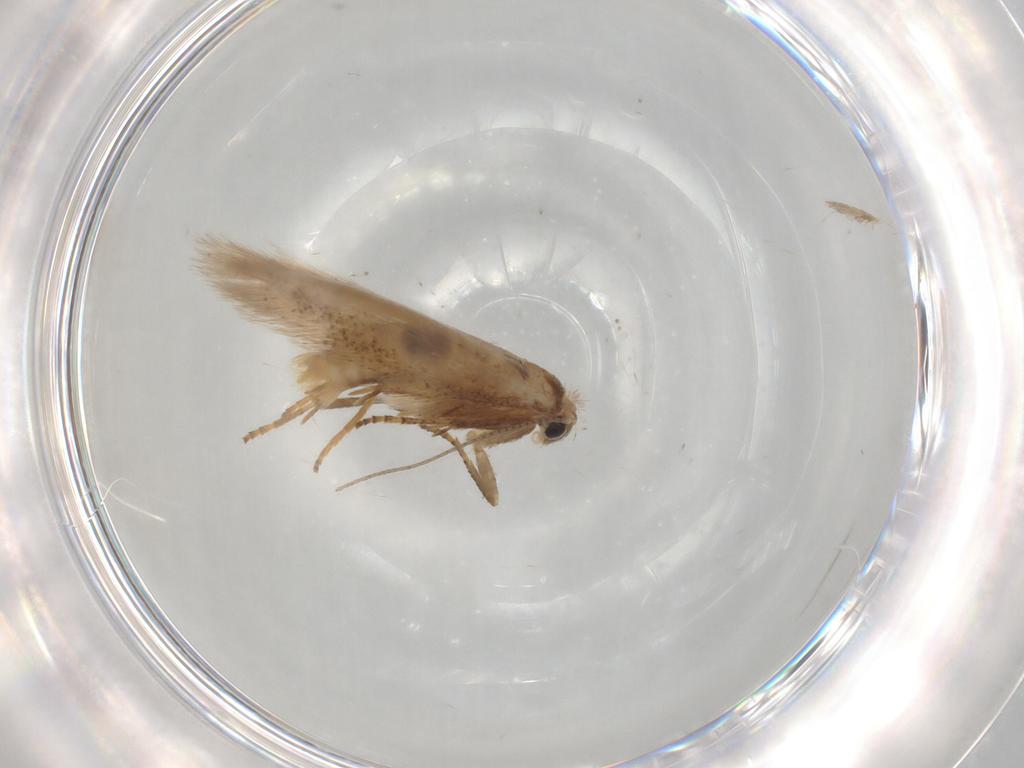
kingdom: Animalia
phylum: Arthropoda
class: Insecta
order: Lepidoptera
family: Bucculatricidae
